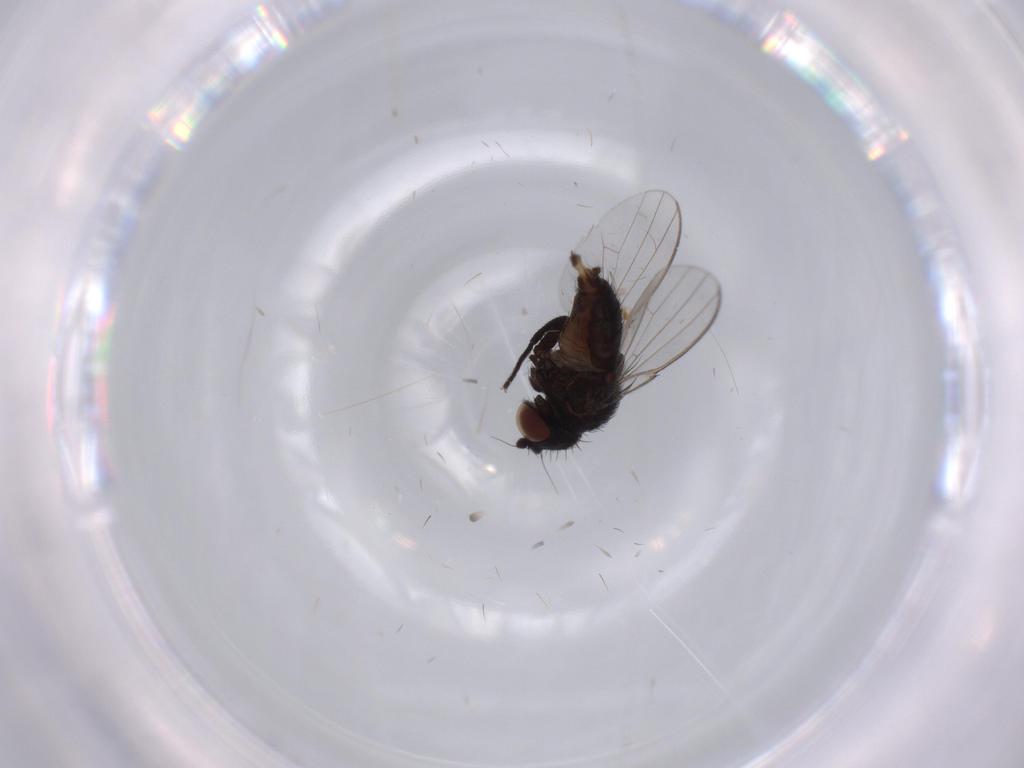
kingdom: Animalia
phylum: Arthropoda
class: Insecta
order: Diptera
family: Milichiidae
